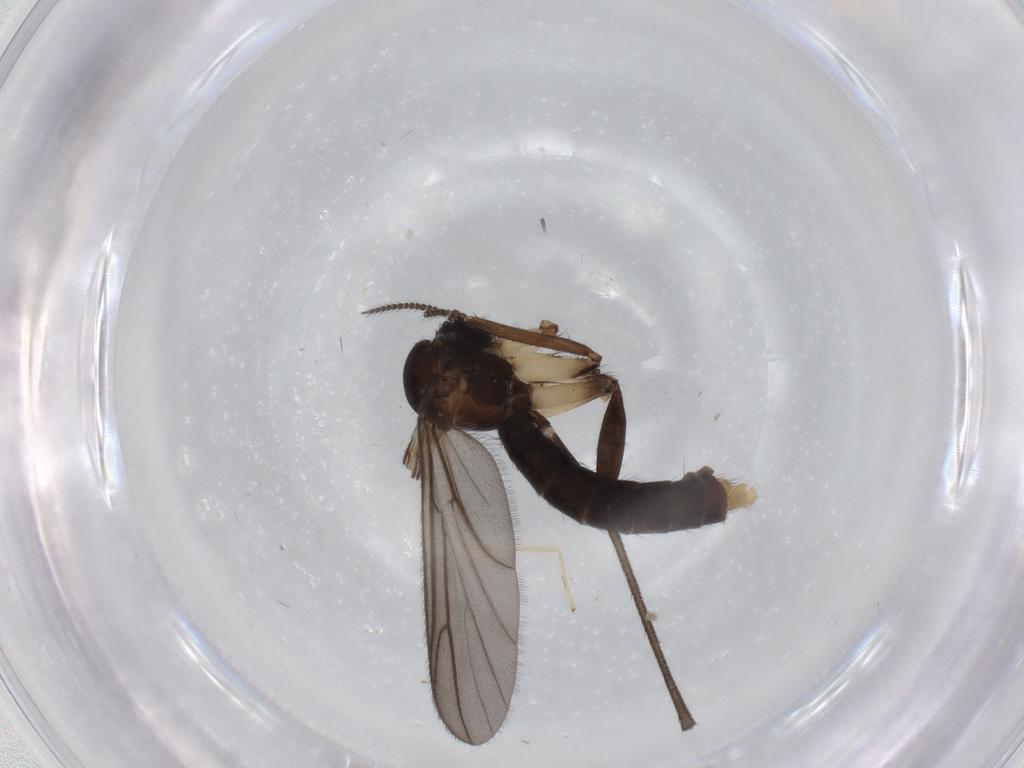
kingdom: Animalia
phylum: Arthropoda
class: Insecta
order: Diptera
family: Chironomidae
